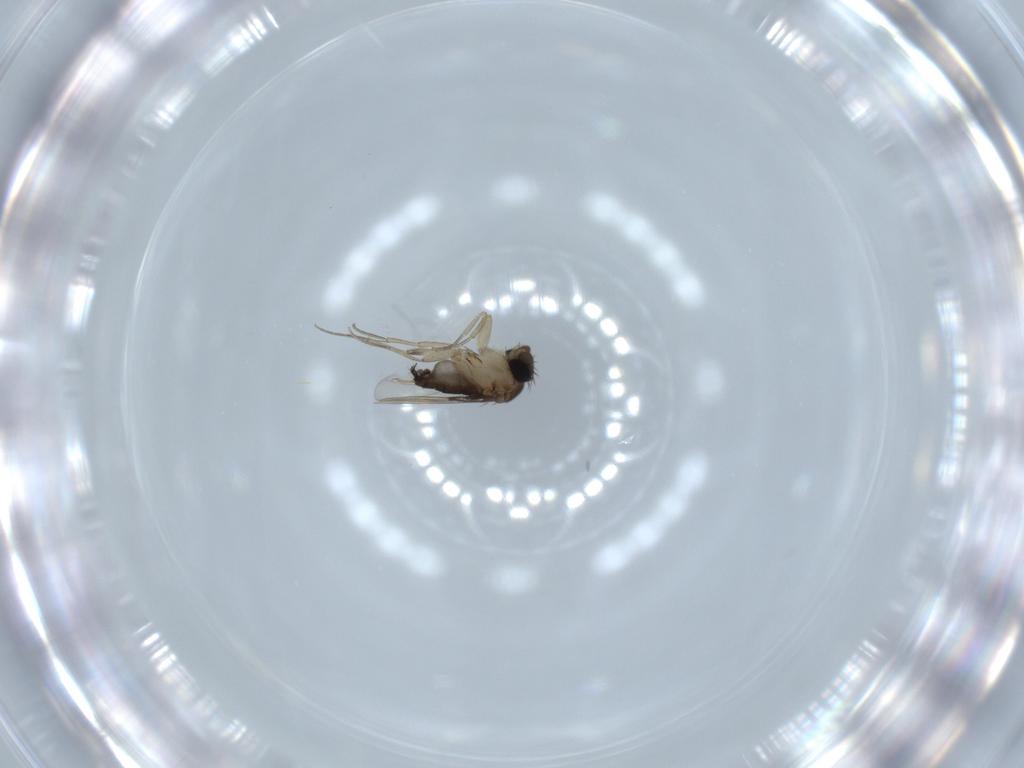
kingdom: Animalia
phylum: Arthropoda
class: Insecta
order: Diptera
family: Phoridae
